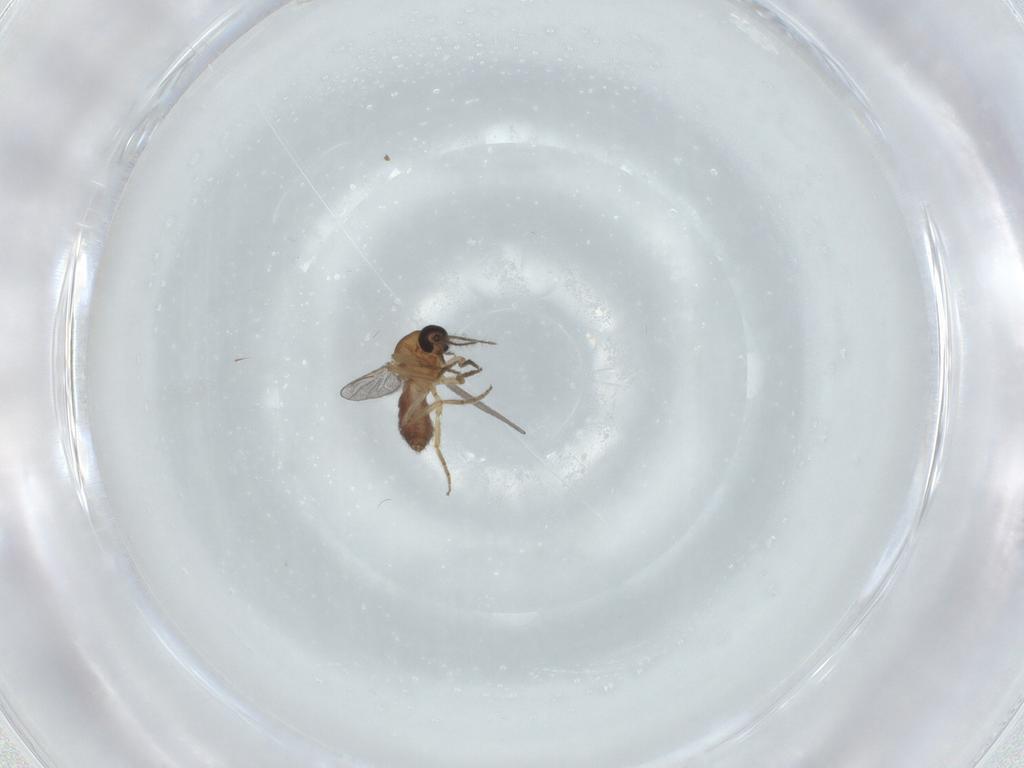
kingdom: Animalia
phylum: Arthropoda
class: Insecta
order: Diptera
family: Ceratopogonidae
